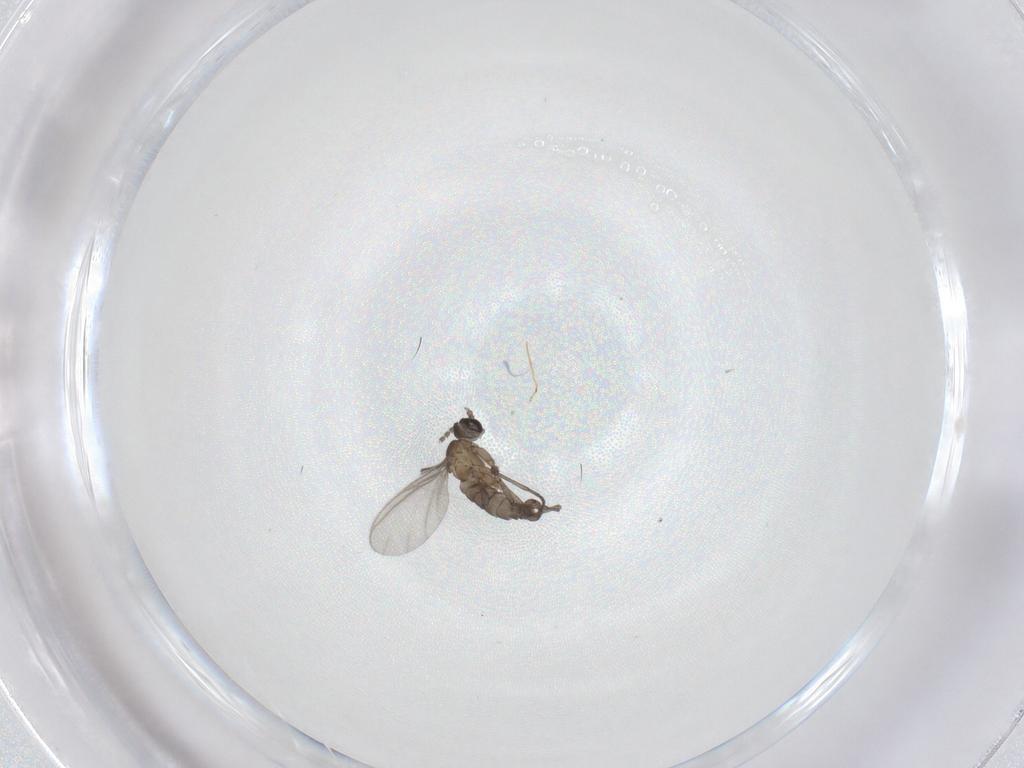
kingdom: Animalia
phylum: Arthropoda
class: Insecta
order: Diptera
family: Sciaridae
